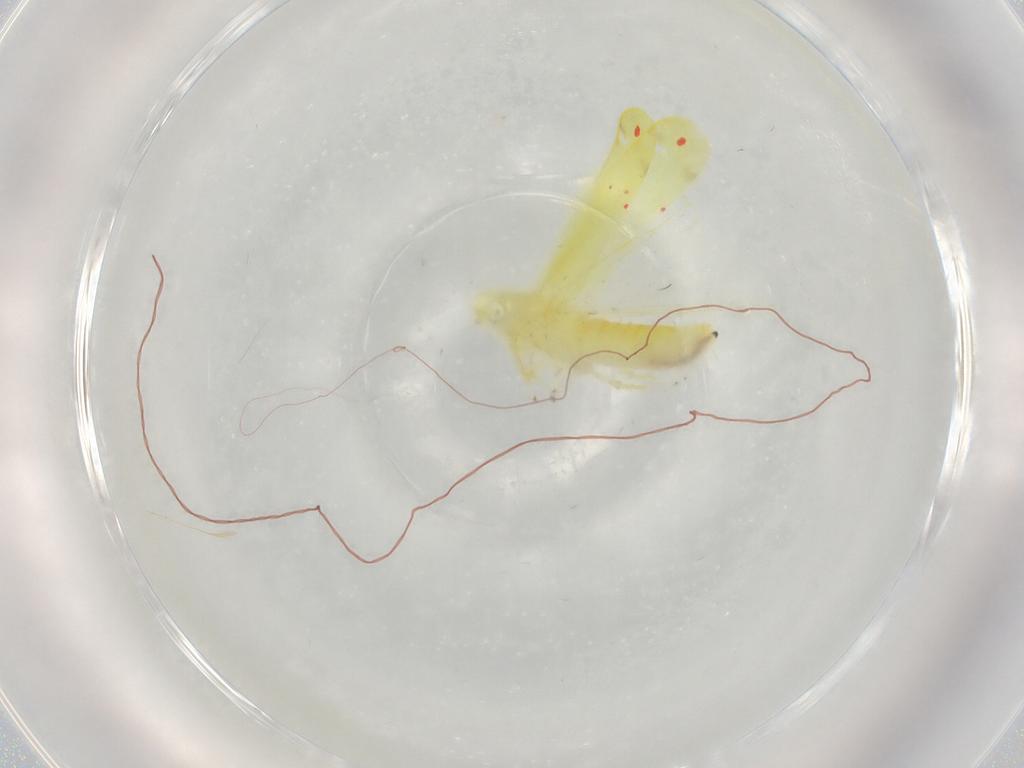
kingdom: Animalia
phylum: Arthropoda
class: Insecta
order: Hemiptera
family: Cicadellidae
